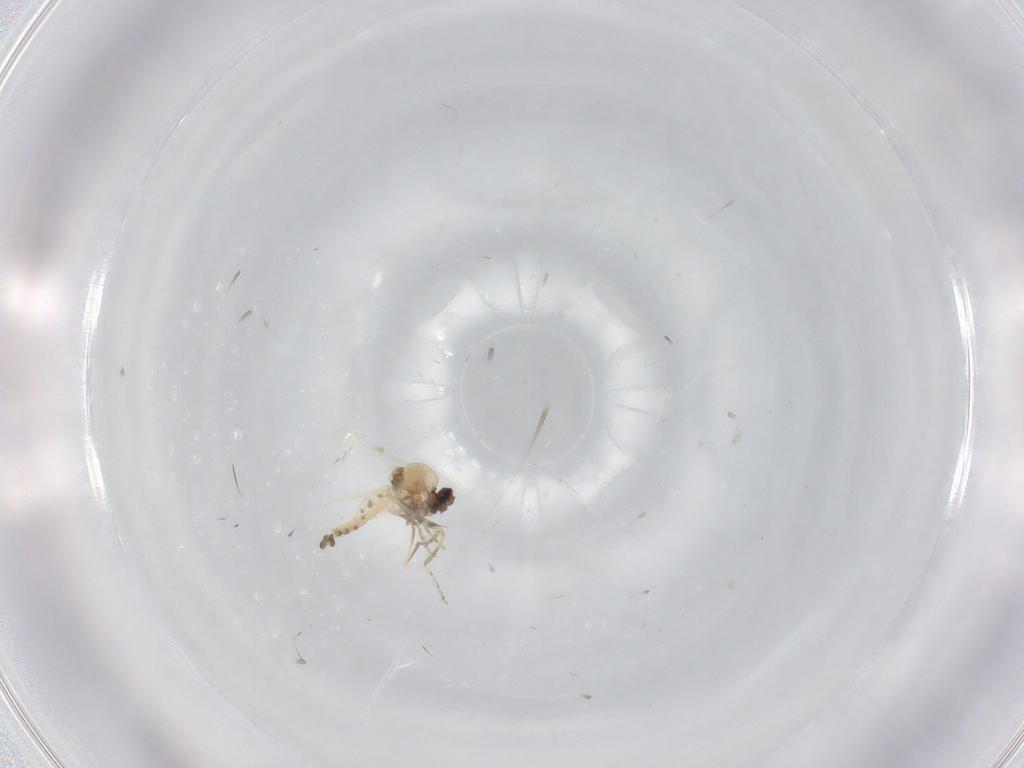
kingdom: Animalia
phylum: Arthropoda
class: Insecta
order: Diptera
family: Ceratopogonidae
